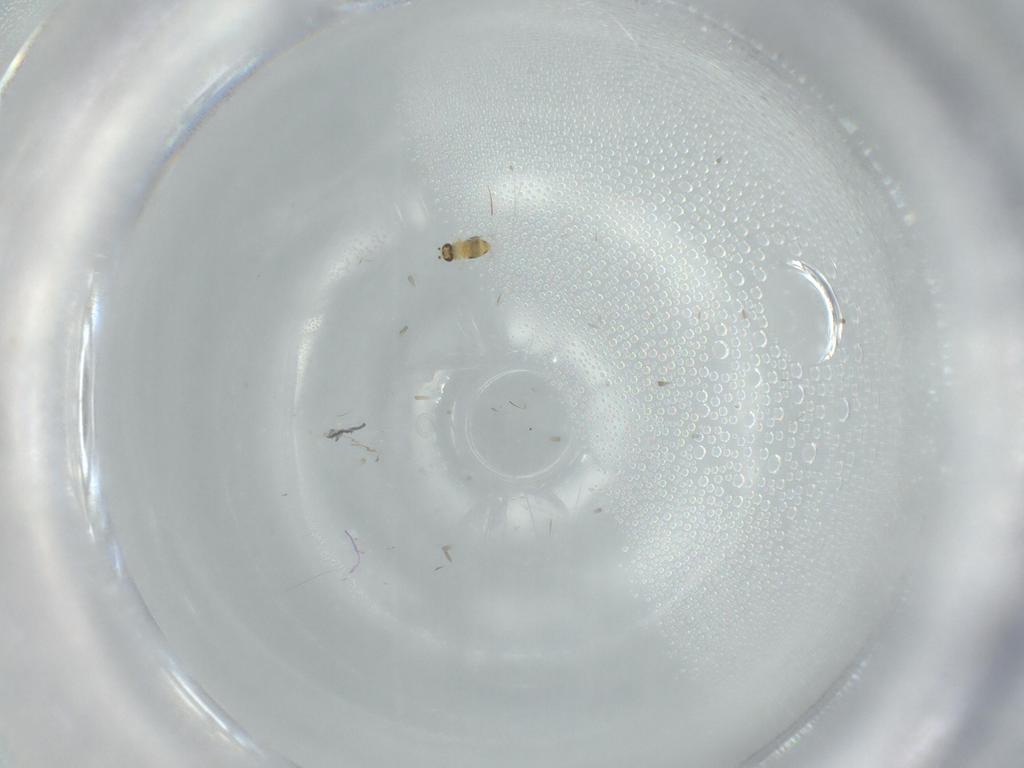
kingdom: Animalia
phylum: Arthropoda
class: Insecta
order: Hymenoptera
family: Signiphoridae
